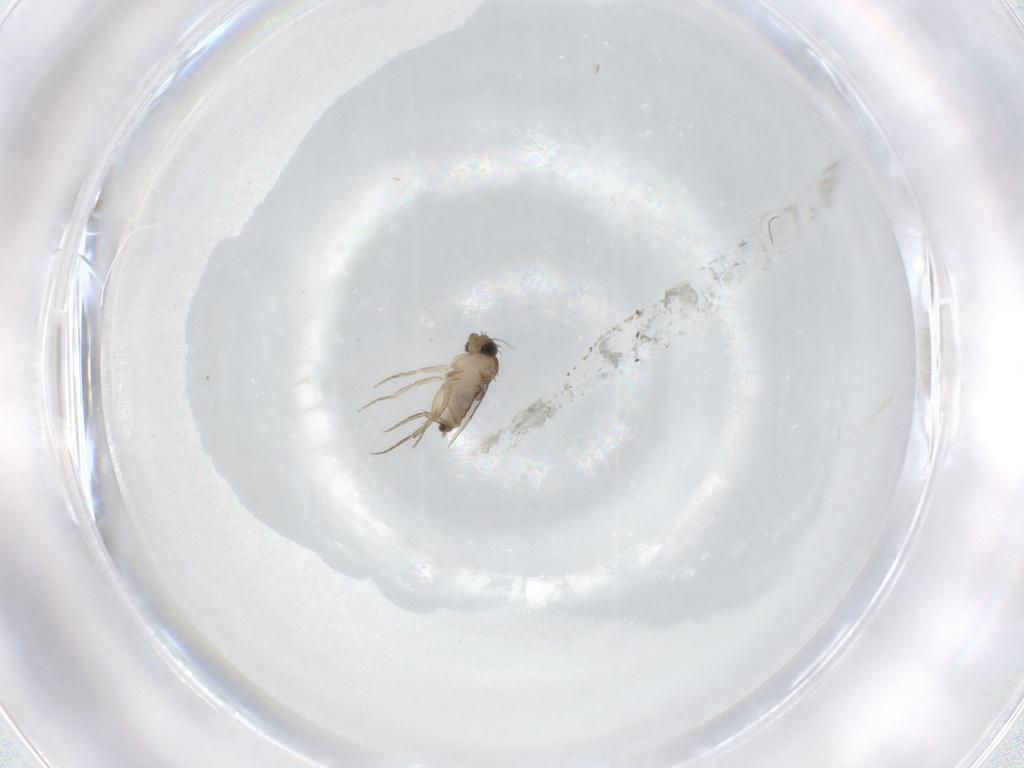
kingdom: Animalia
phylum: Arthropoda
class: Insecta
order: Diptera
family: Phoridae
